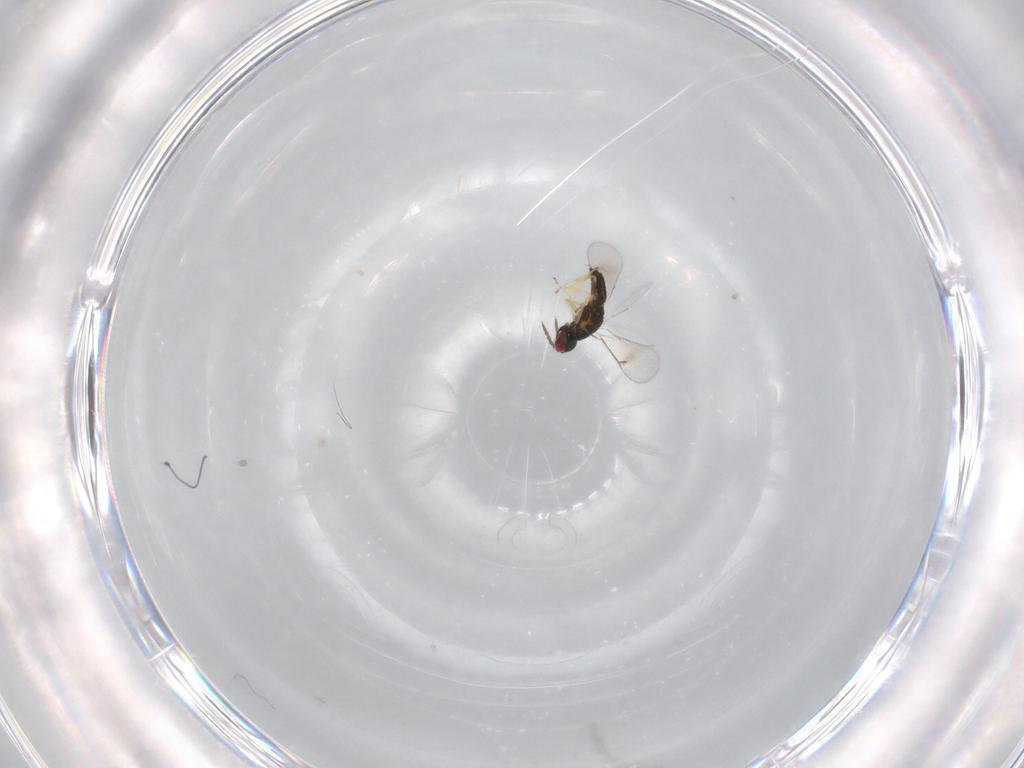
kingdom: Animalia
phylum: Arthropoda
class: Insecta
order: Hymenoptera
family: Eulophidae
